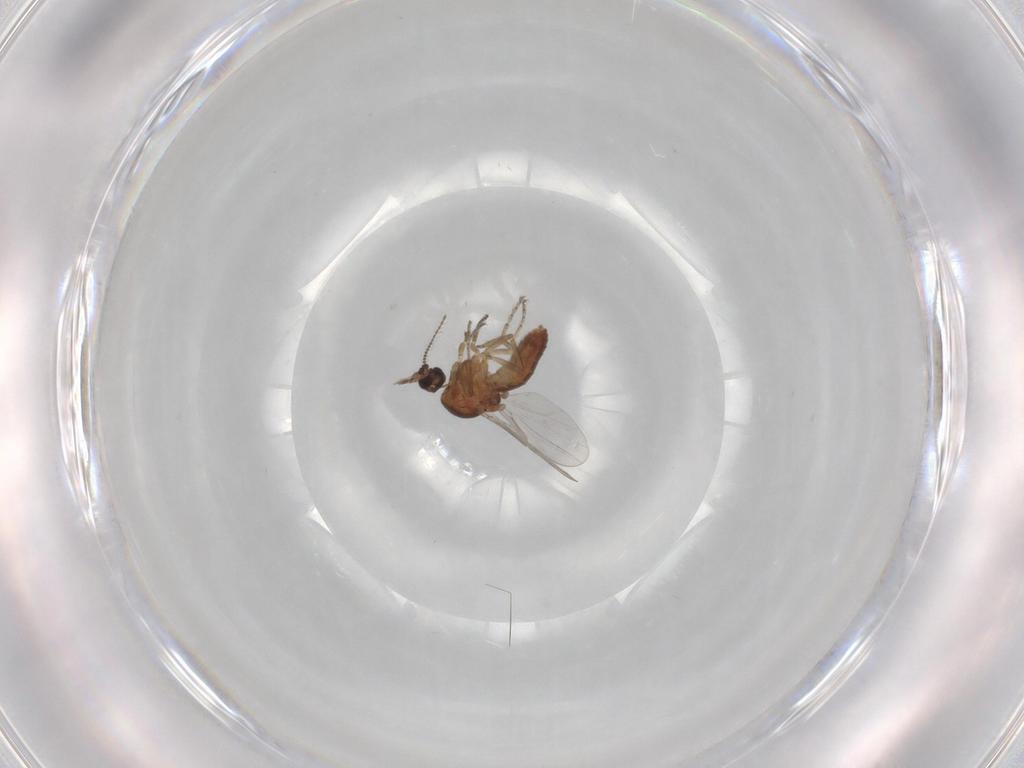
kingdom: Animalia
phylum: Arthropoda
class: Insecta
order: Diptera
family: Ceratopogonidae
